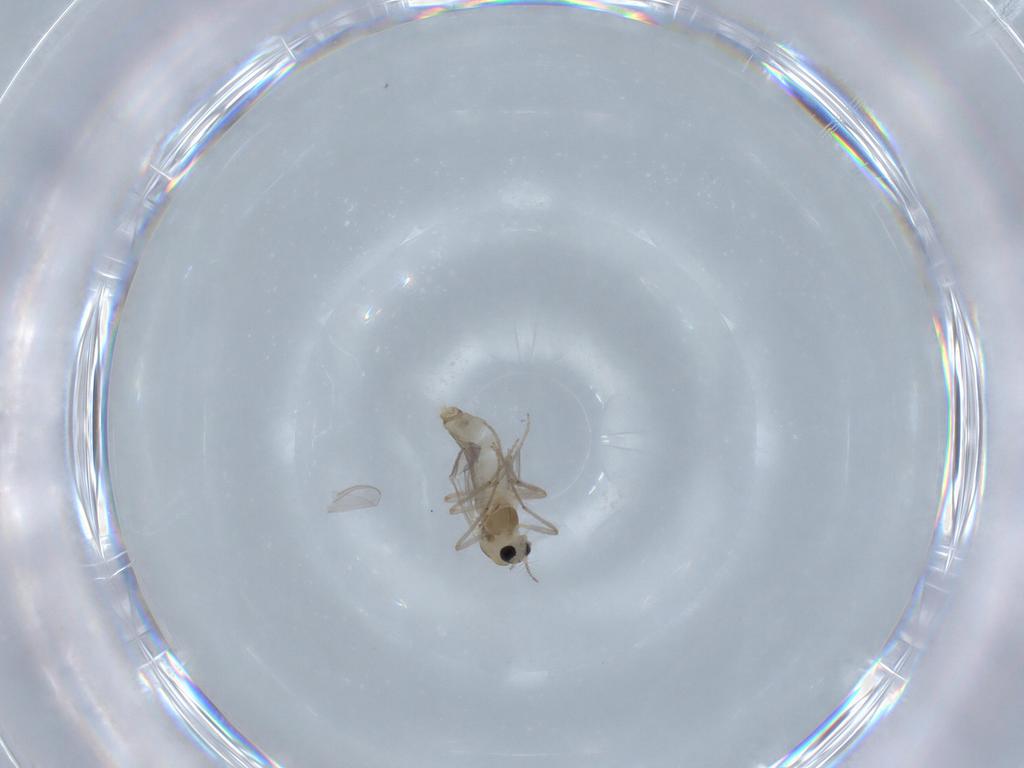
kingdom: Animalia
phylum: Arthropoda
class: Insecta
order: Diptera
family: Chironomidae
